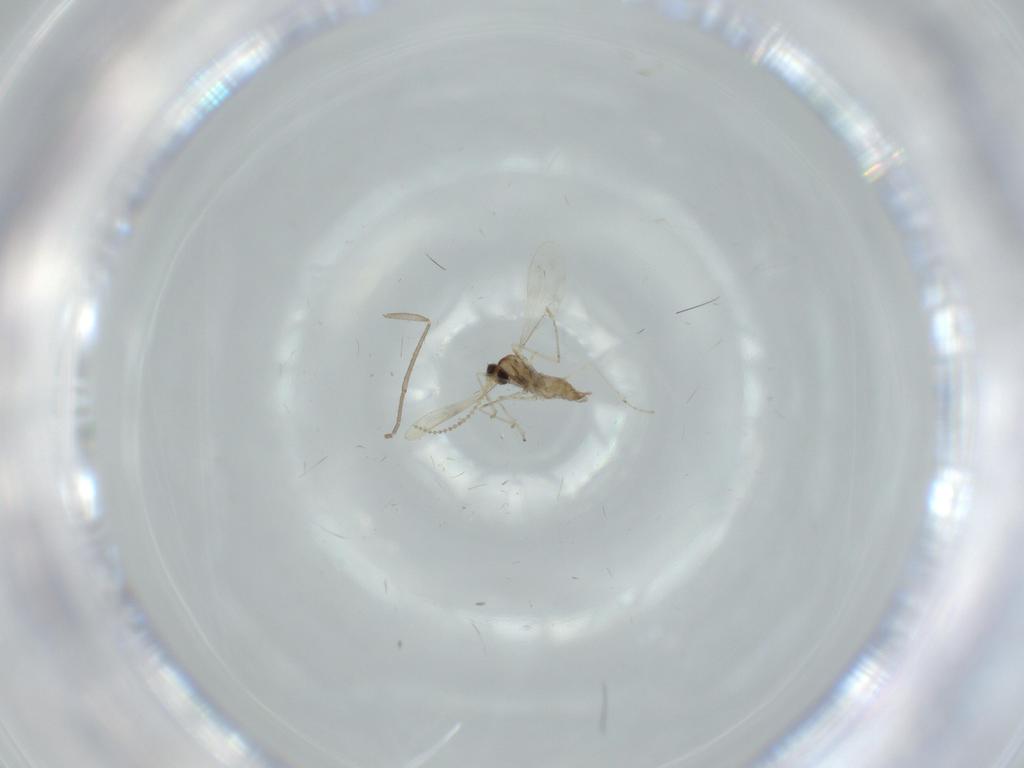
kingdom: Animalia
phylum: Arthropoda
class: Insecta
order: Diptera
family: Cecidomyiidae
